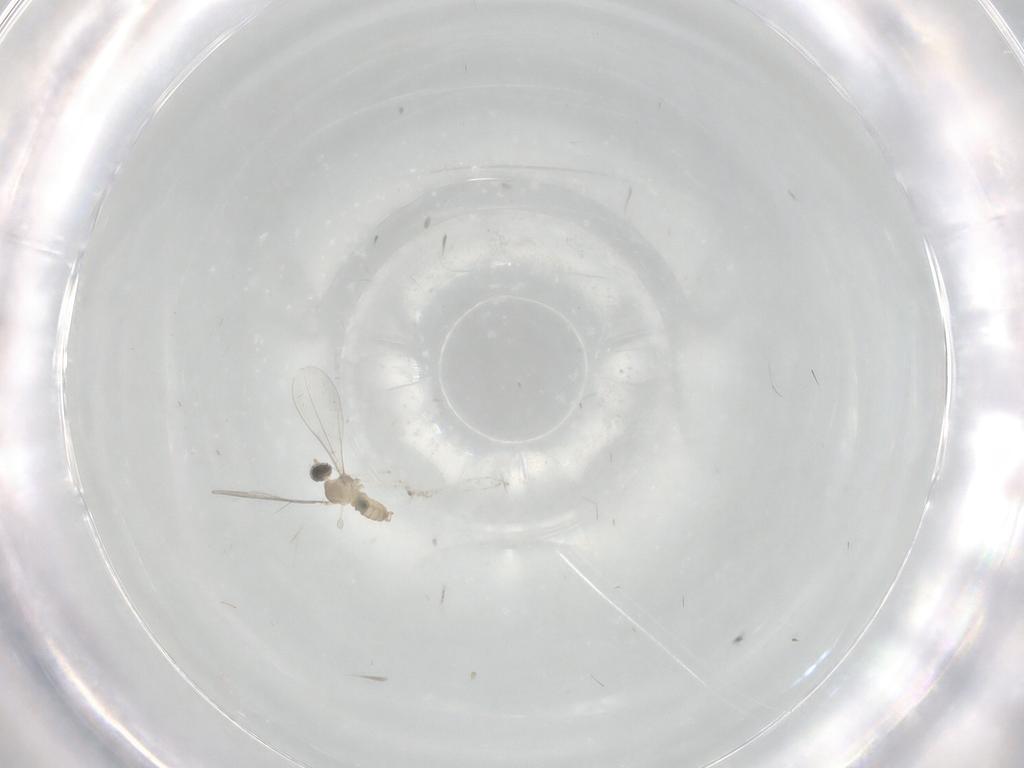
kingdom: Animalia
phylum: Arthropoda
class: Insecta
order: Diptera
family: Cecidomyiidae
